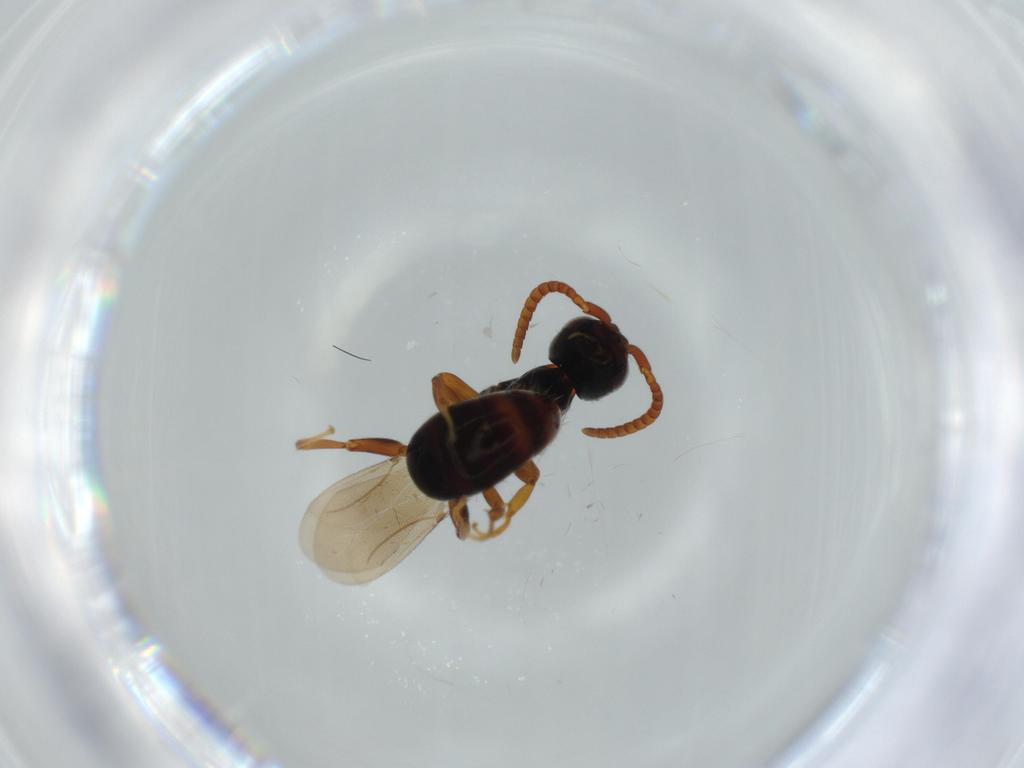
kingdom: Animalia
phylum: Arthropoda
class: Insecta
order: Hymenoptera
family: Bethylidae
